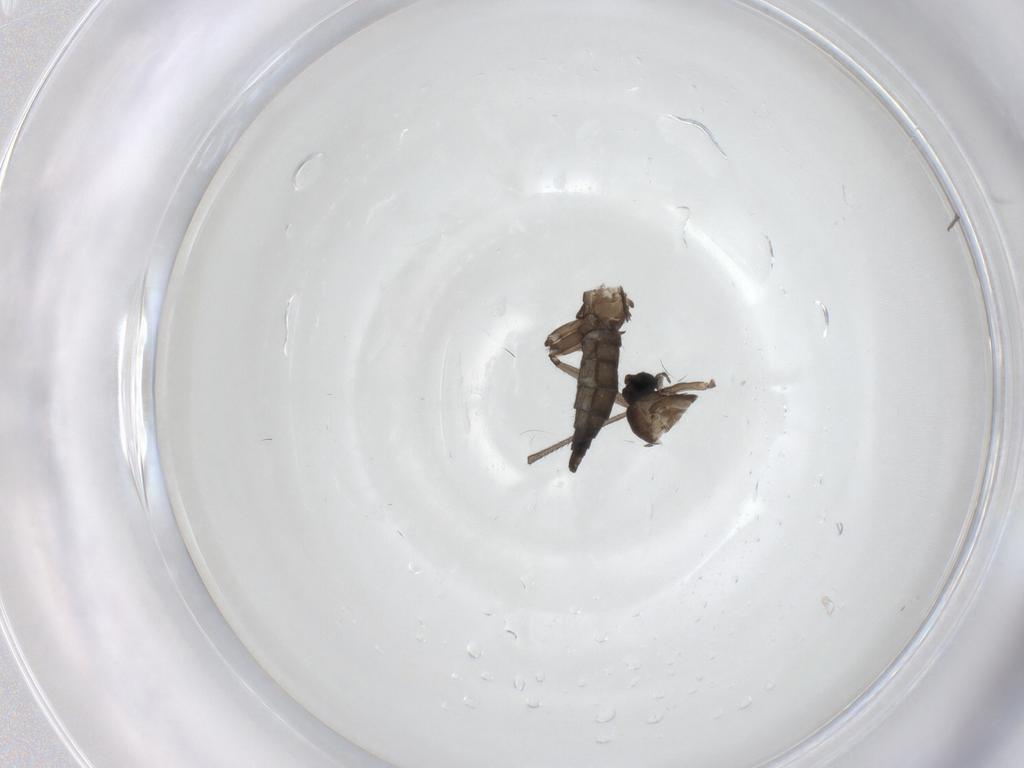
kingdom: Animalia
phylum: Arthropoda
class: Insecta
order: Diptera
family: Sciaridae
